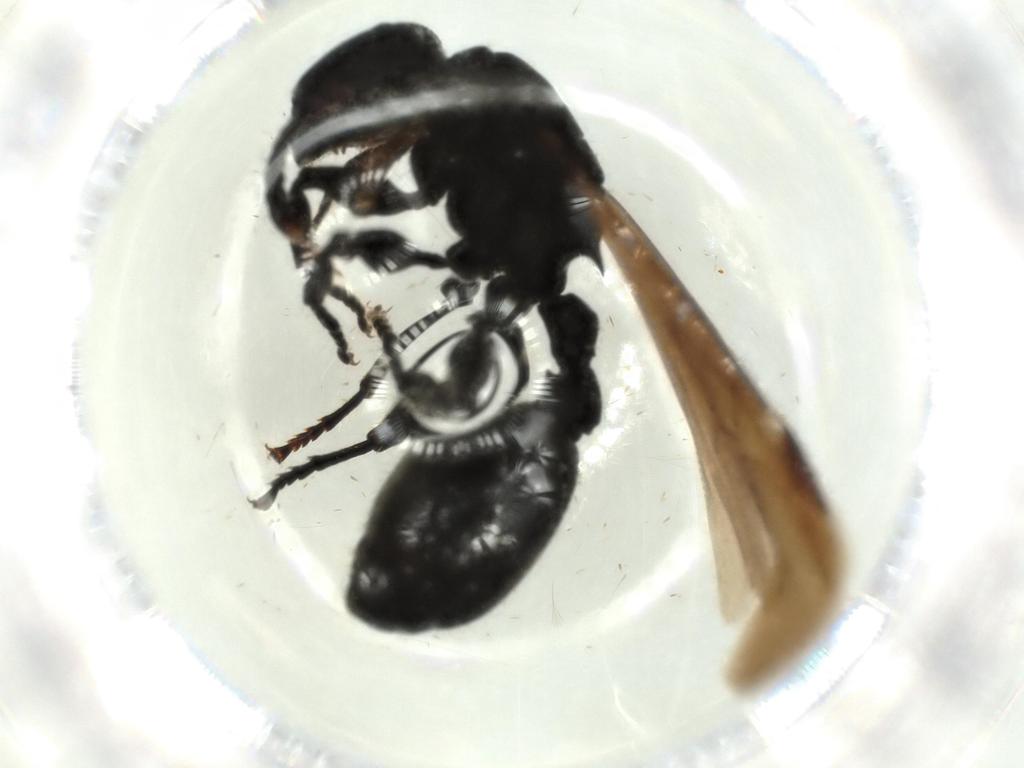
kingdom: Animalia
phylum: Arthropoda
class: Insecta
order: Hymenoptera
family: Formicidae
